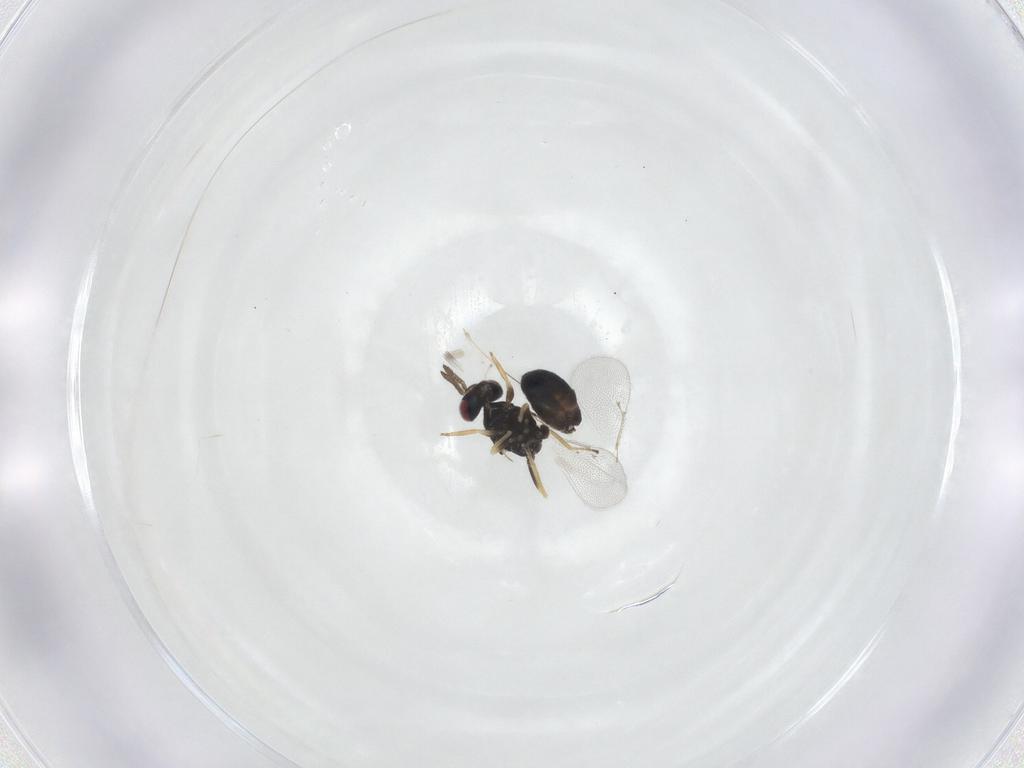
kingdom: Animalia
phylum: Arthropoda
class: Insecta
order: Hymenoptera
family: Eulophidae
